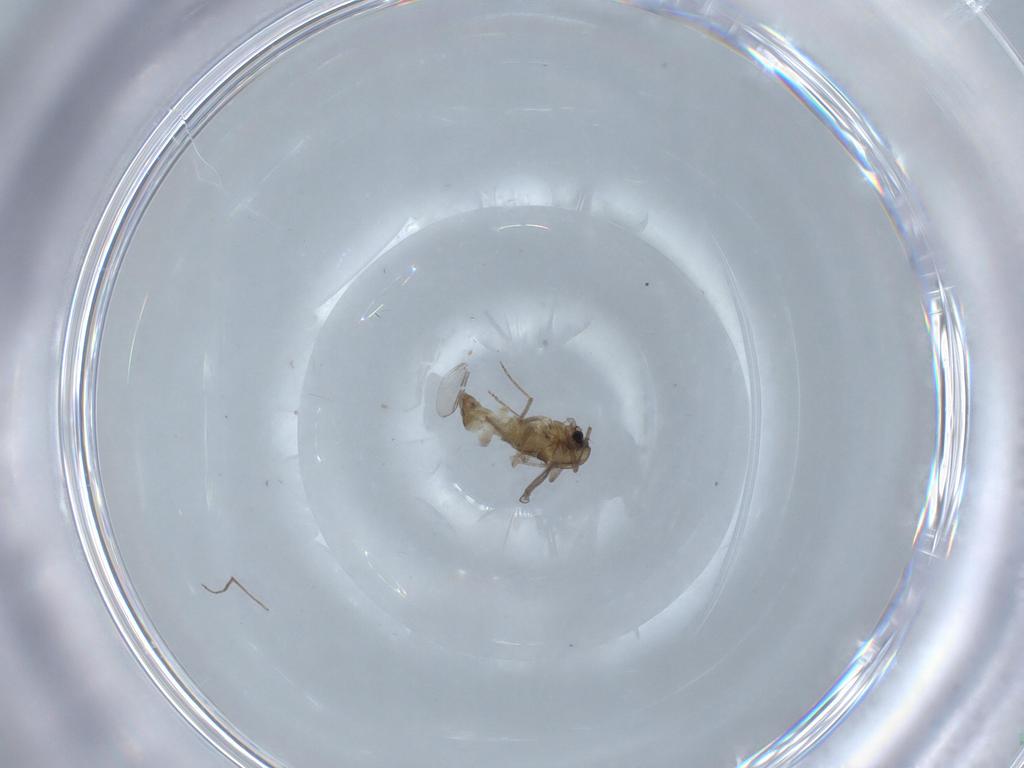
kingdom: Animalia
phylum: Arthropoda
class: Insecta
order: Diptera
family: Chironomidae
